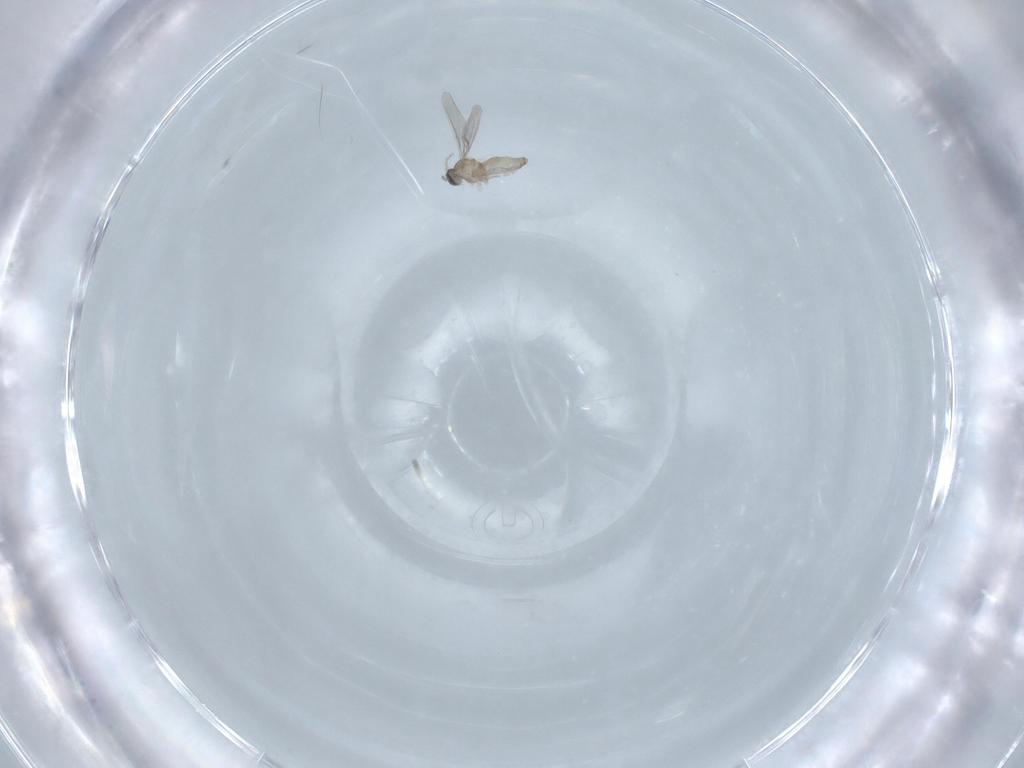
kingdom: Animalia
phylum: Arthropoda
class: Insecta
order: Diptera
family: Cecidomyiidae
